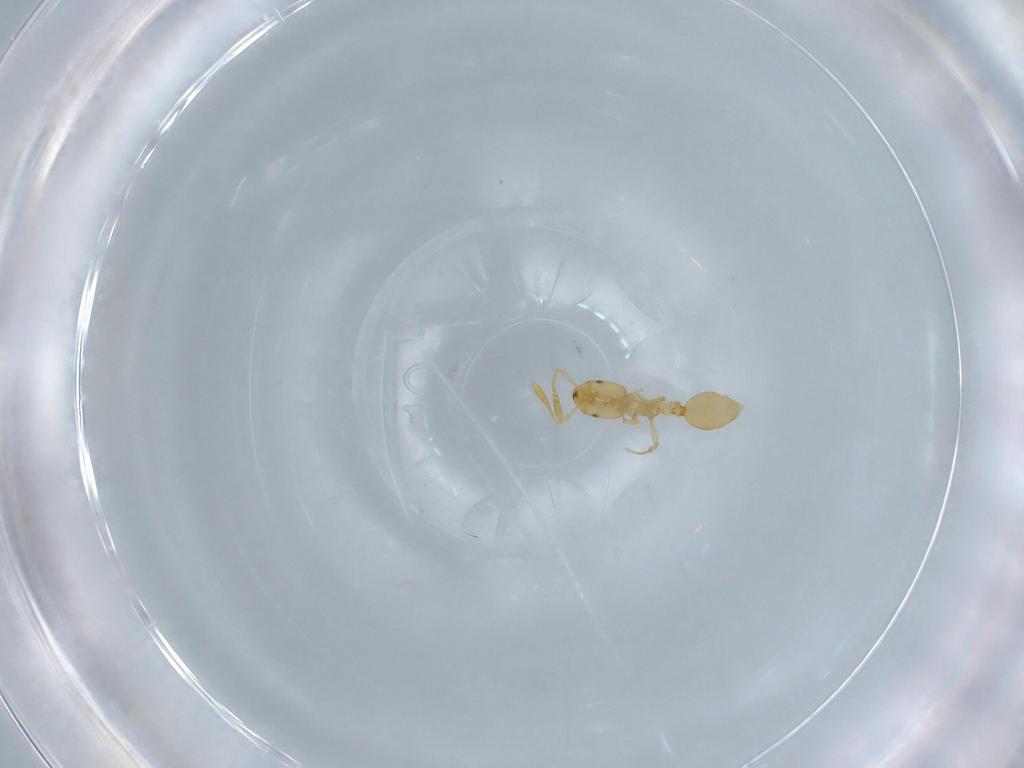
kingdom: Animalia
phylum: Arthropoda
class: Insecta
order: Hymenoptera
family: Formicidae
